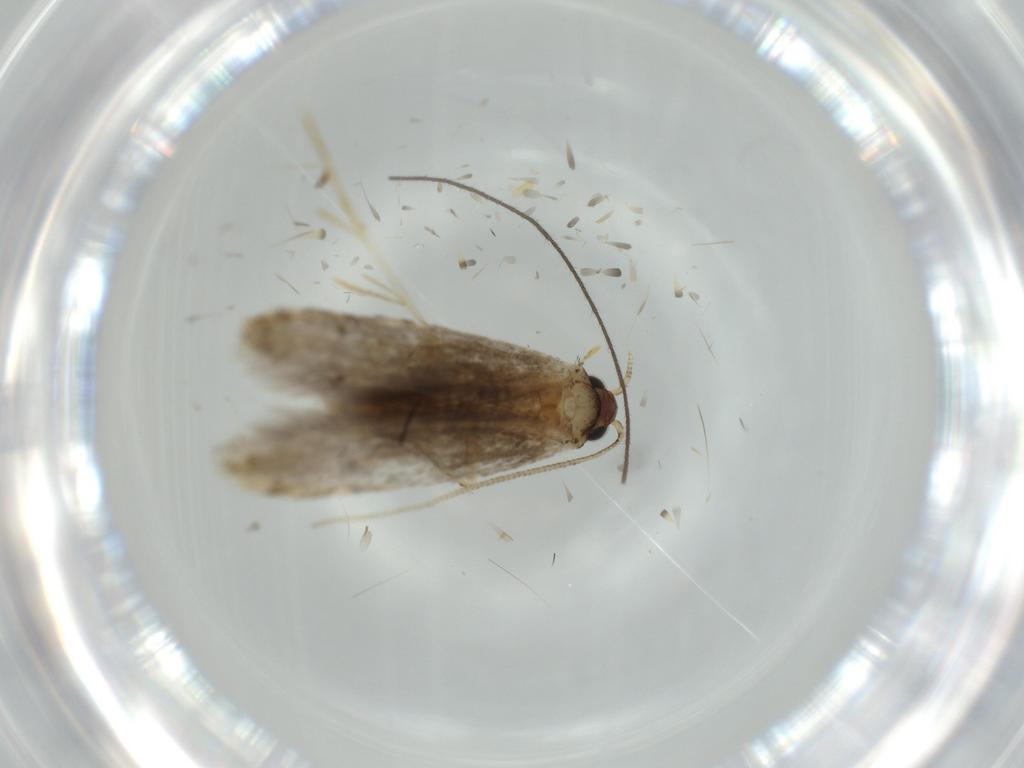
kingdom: Animalia
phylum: Arthropoda
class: Insecta
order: Lepidoptera
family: Tineidae
